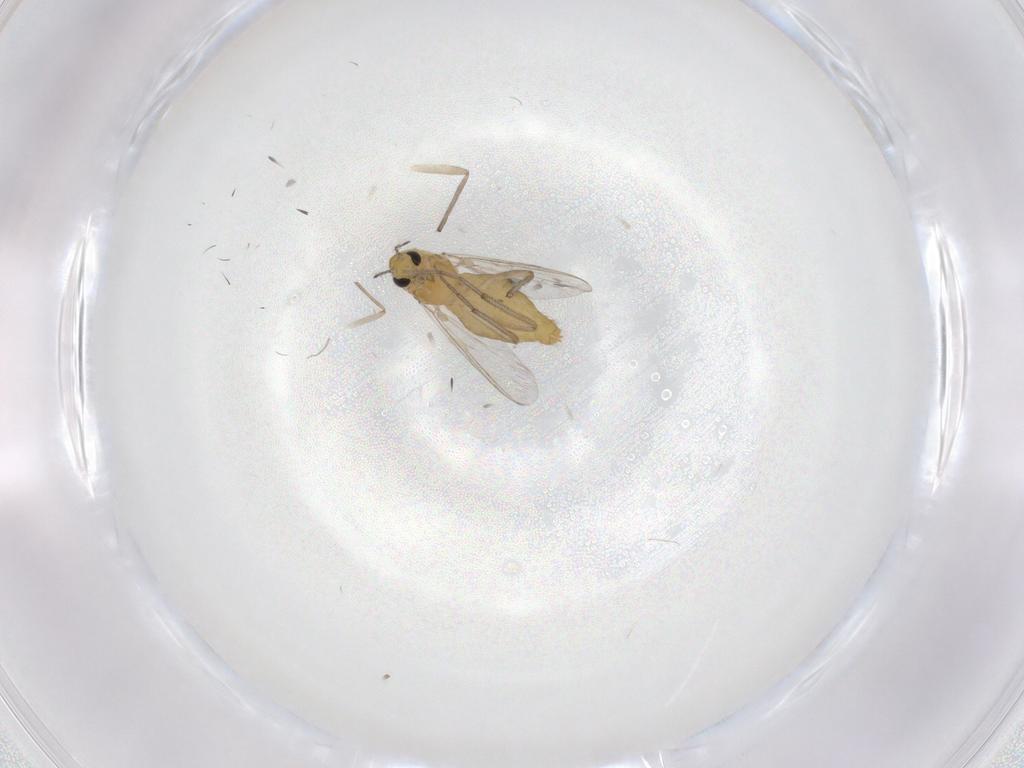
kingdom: Animalia
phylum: Arthropoda
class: Insecta
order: Diptera
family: Chironomidae
